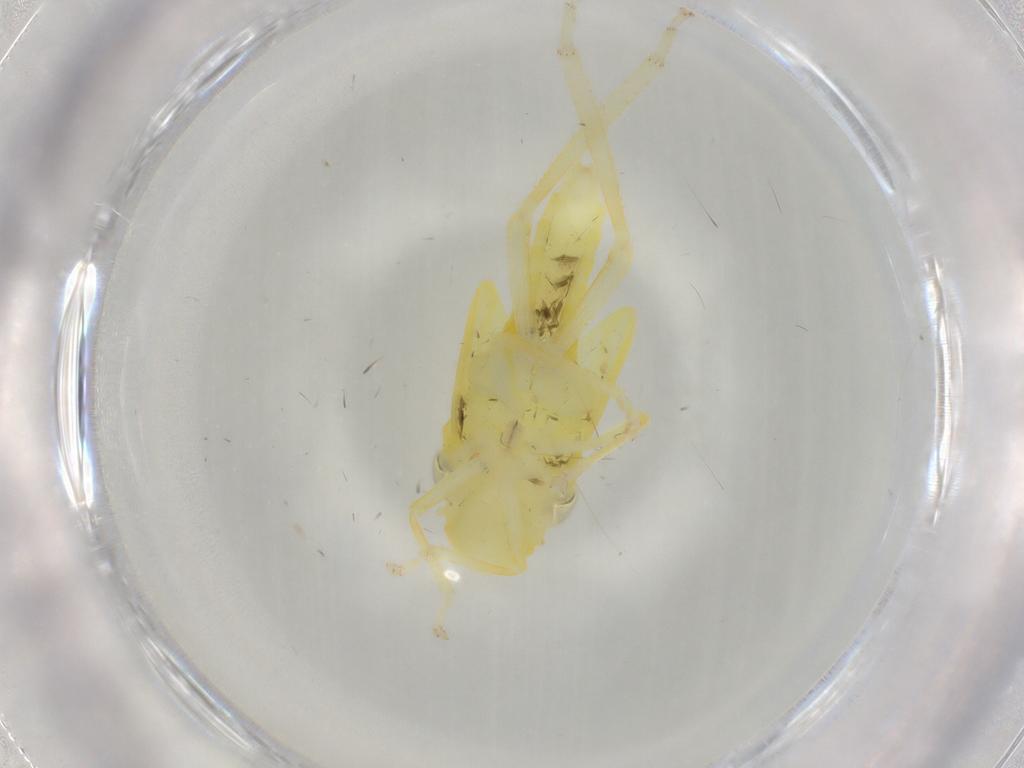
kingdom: Animalia
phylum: Arthropoda
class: Insecta
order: Hemiptera
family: Cicadellidae
